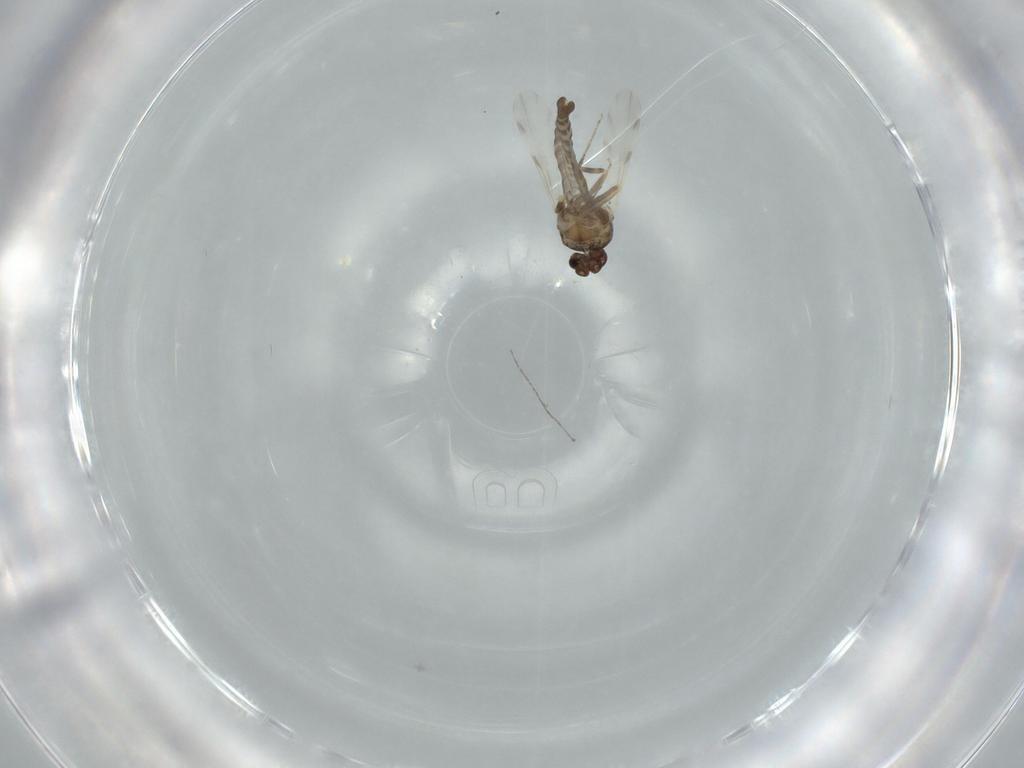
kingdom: Animalia
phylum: Arthropoda
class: Insecta
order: Diptera
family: Ceratopogonidae
